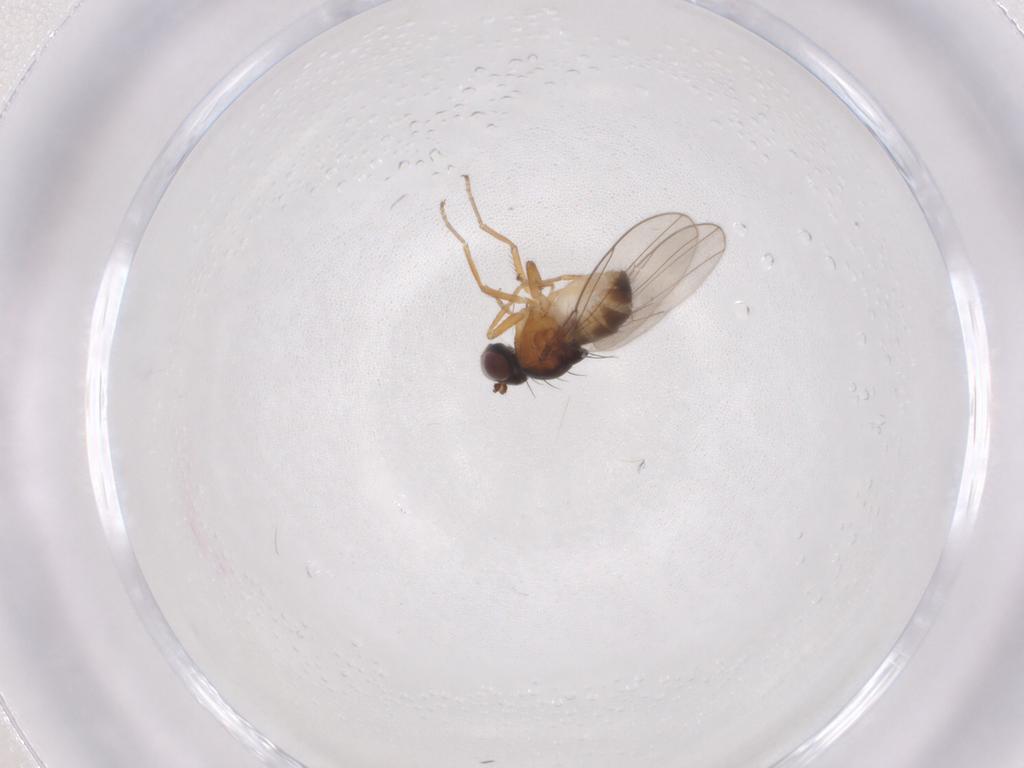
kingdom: Animalia
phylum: Arthropoda
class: Insecta
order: Diptera
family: Ephydridae
